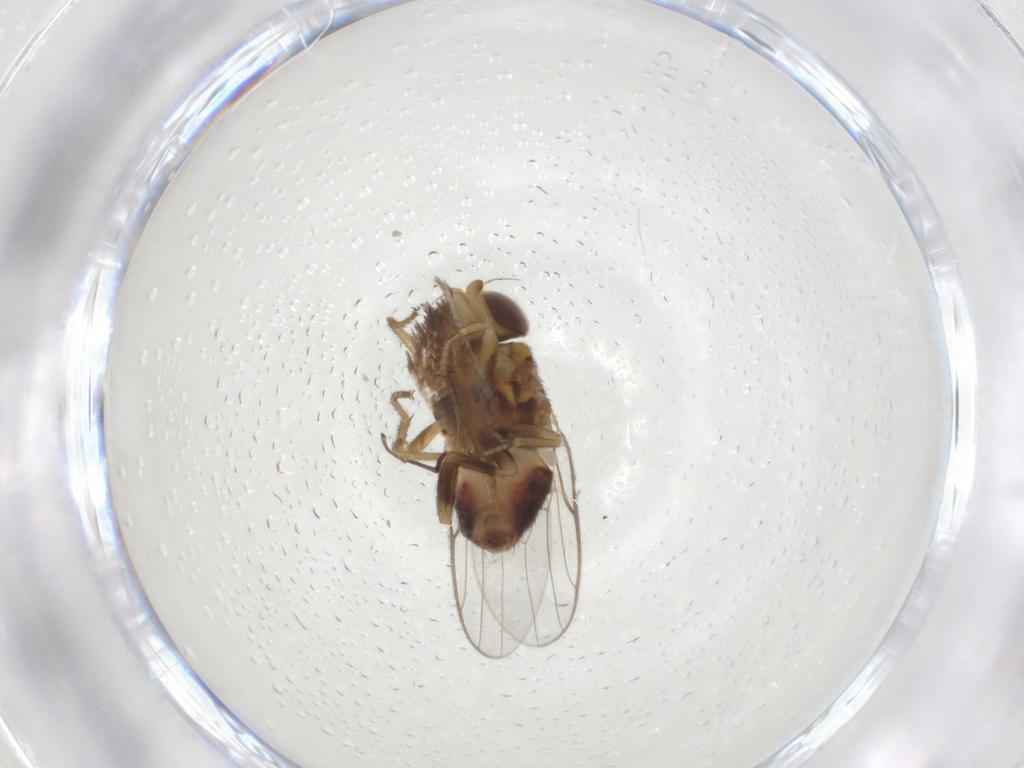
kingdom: Animalia
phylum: Arthropoda
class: Insecta
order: Diptera
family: Chloropidae
